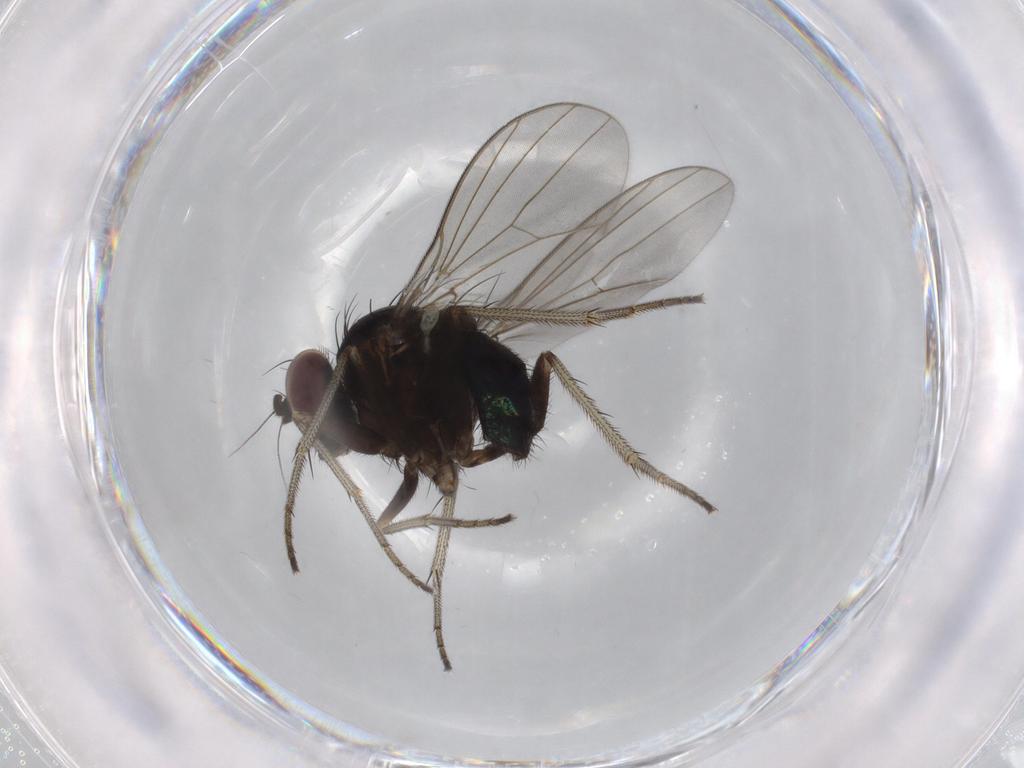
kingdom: Animalia
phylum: Arthropoda
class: Insecta
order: Diptera
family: Dolichopodidae
